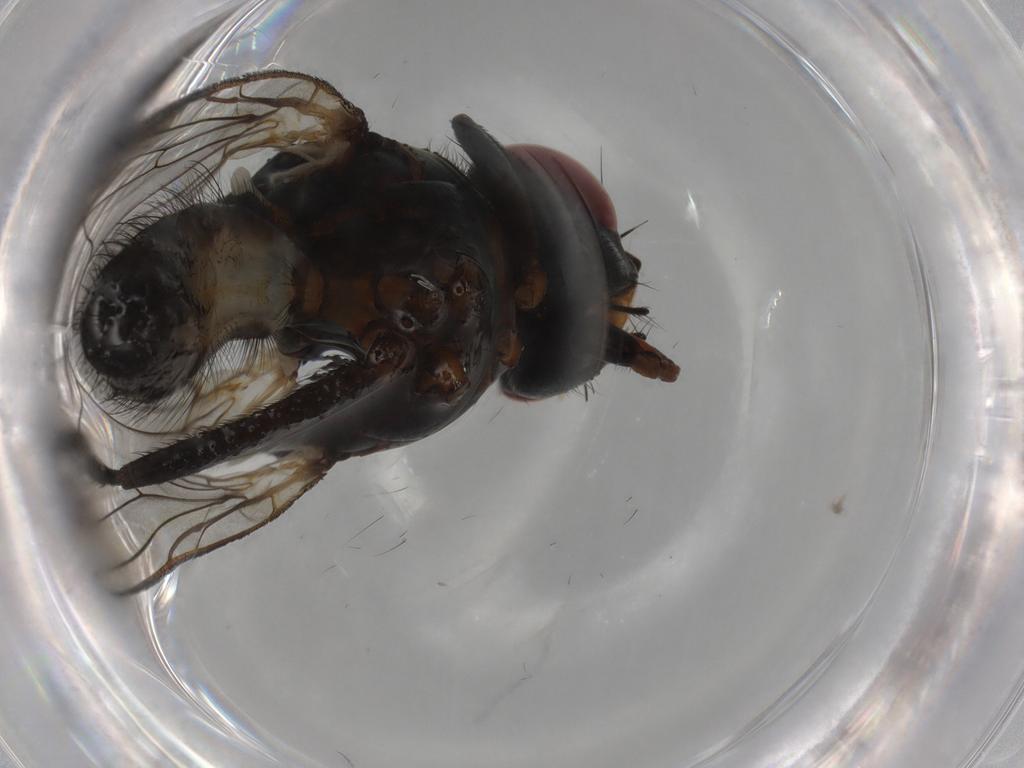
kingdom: Animalia
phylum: Arthropoda
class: Insecta
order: Diptera
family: Anthomyiidae
